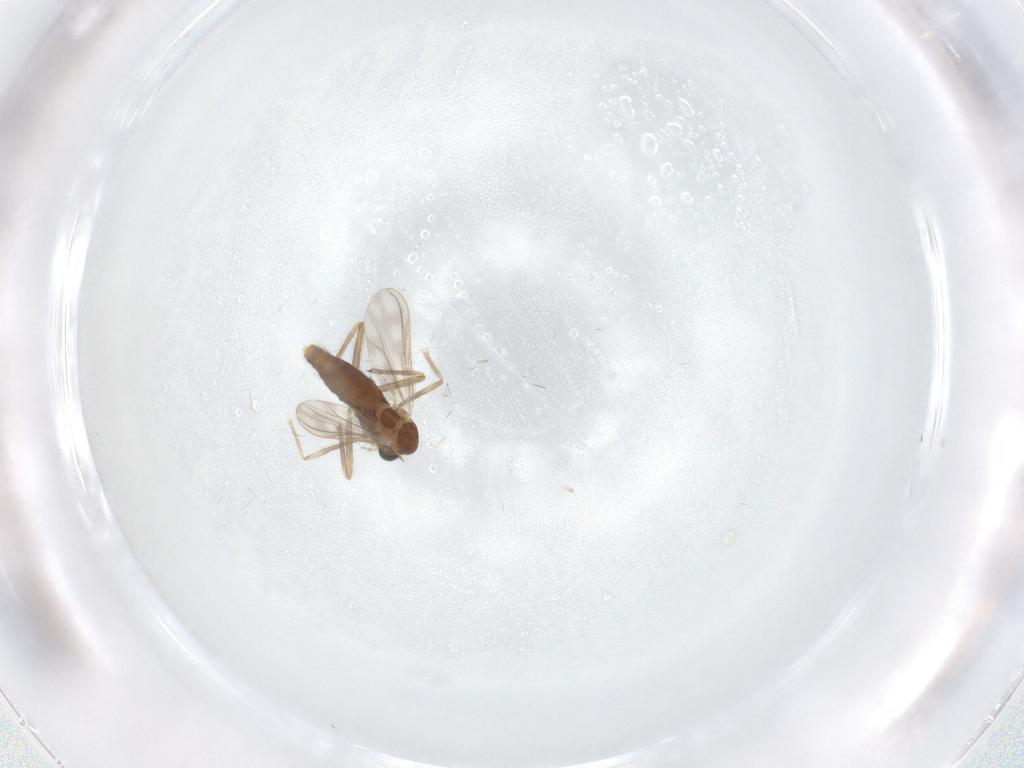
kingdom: Animalia
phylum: Arthropoda
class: Insecta
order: Diptera
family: Chironomidae
